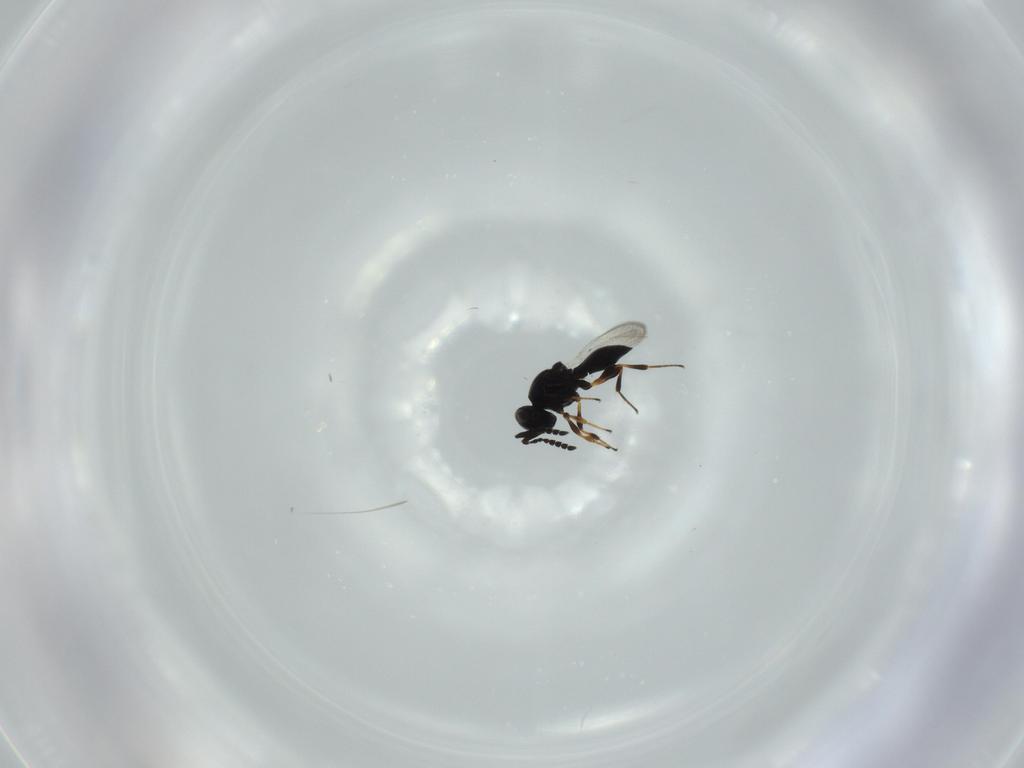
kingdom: Animalia
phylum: Arthropoda
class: Insecta
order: Hymenoptera
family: Platygastridae
